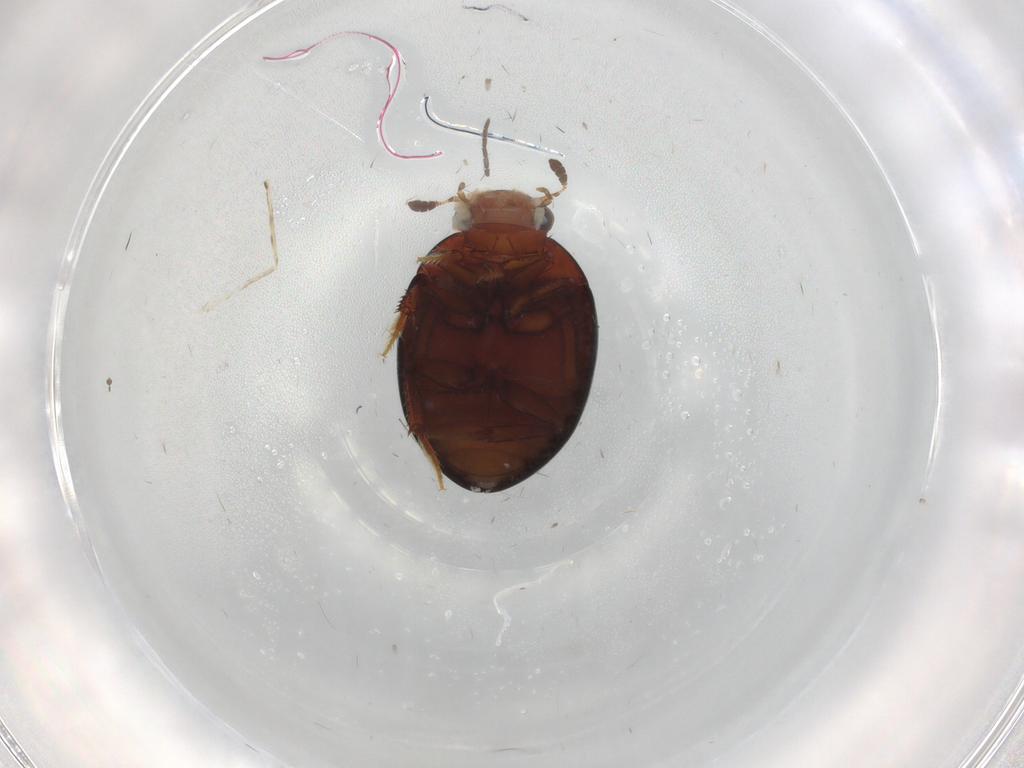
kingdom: Animalia
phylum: Arthropoda
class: Insecta
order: Coleoptera
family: Hydrophilidae
